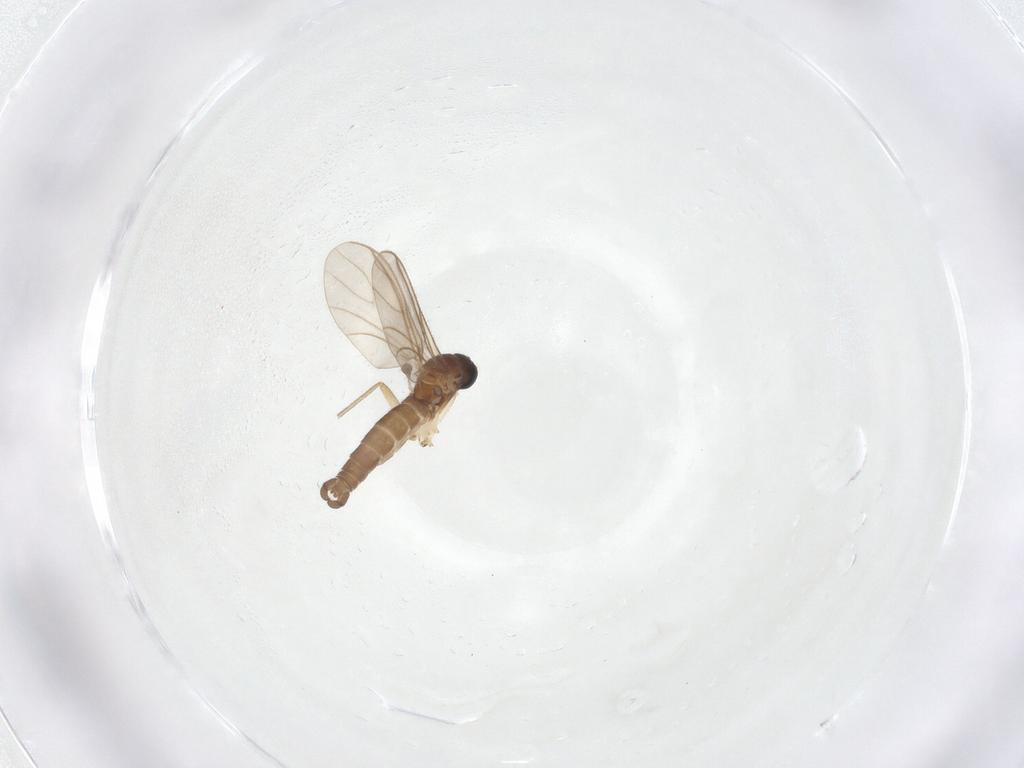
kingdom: Animalia
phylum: Arthropoda
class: Insecta
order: Diptera
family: Sciaridae
